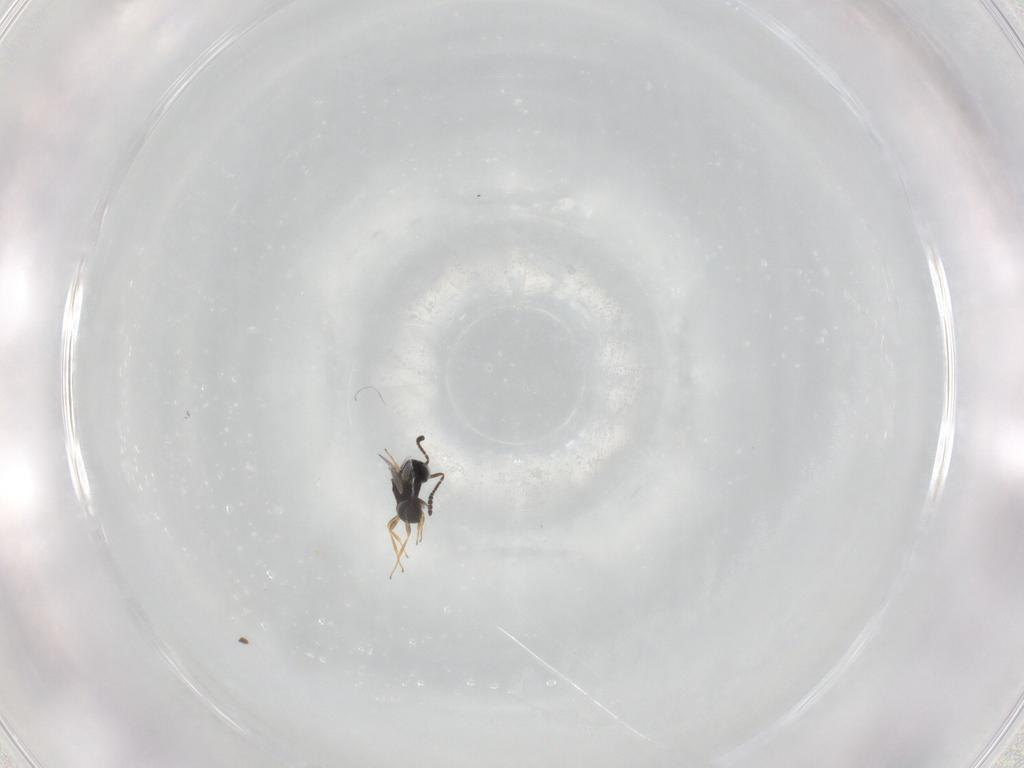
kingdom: Animalia
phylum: Arthropoda
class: Insecta
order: Hymenoptera
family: Scelionidae
